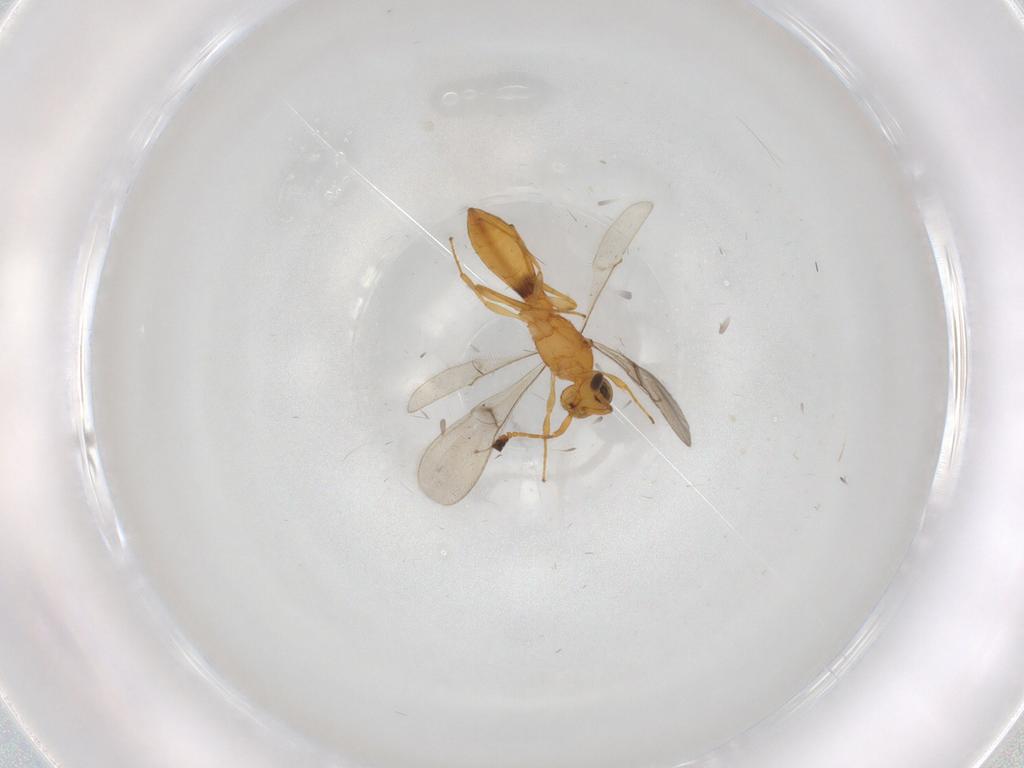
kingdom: Animalia
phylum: Arthropoda
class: Insecta
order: Hymenoptera
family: Scelionidae
